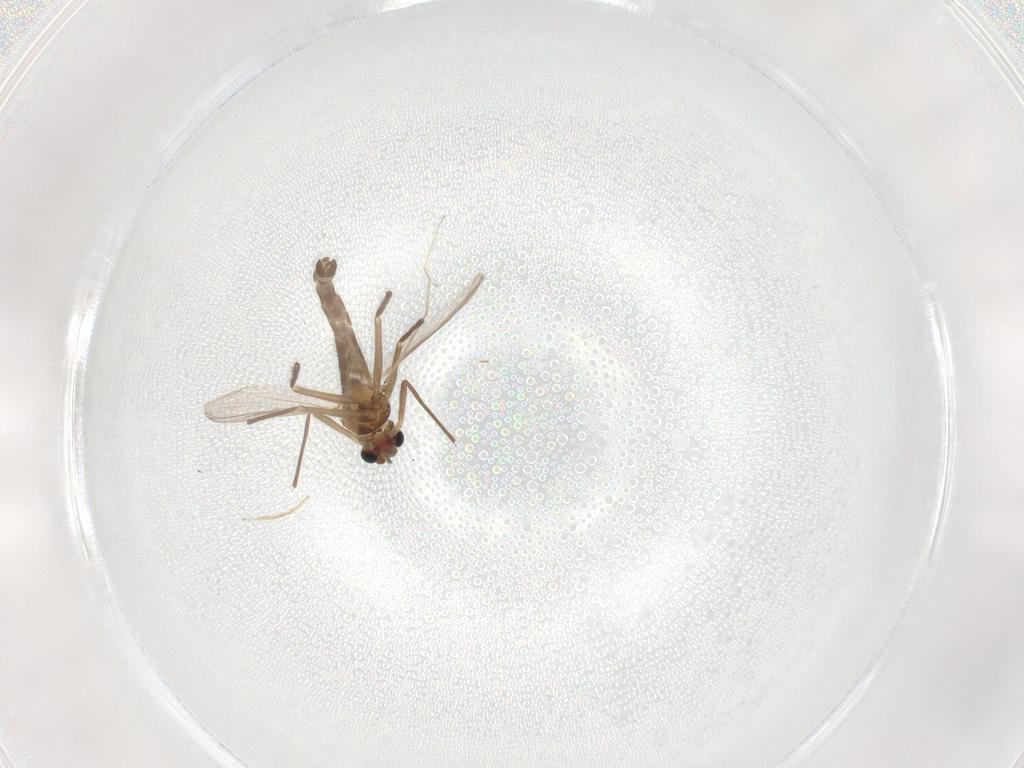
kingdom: Animalia
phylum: Arthropoda
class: Insecta
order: Diptera
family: Chironomidae
